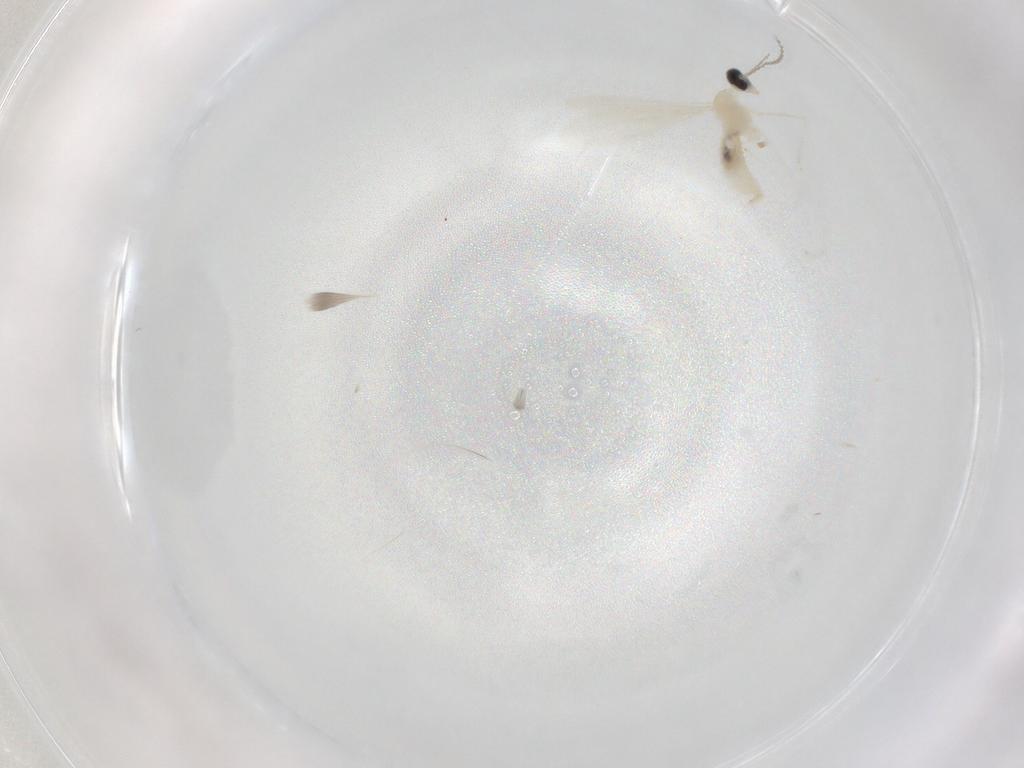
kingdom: Animalia
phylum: Arthropoda
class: Insecta
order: Diptera
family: Cecidomyiidae
